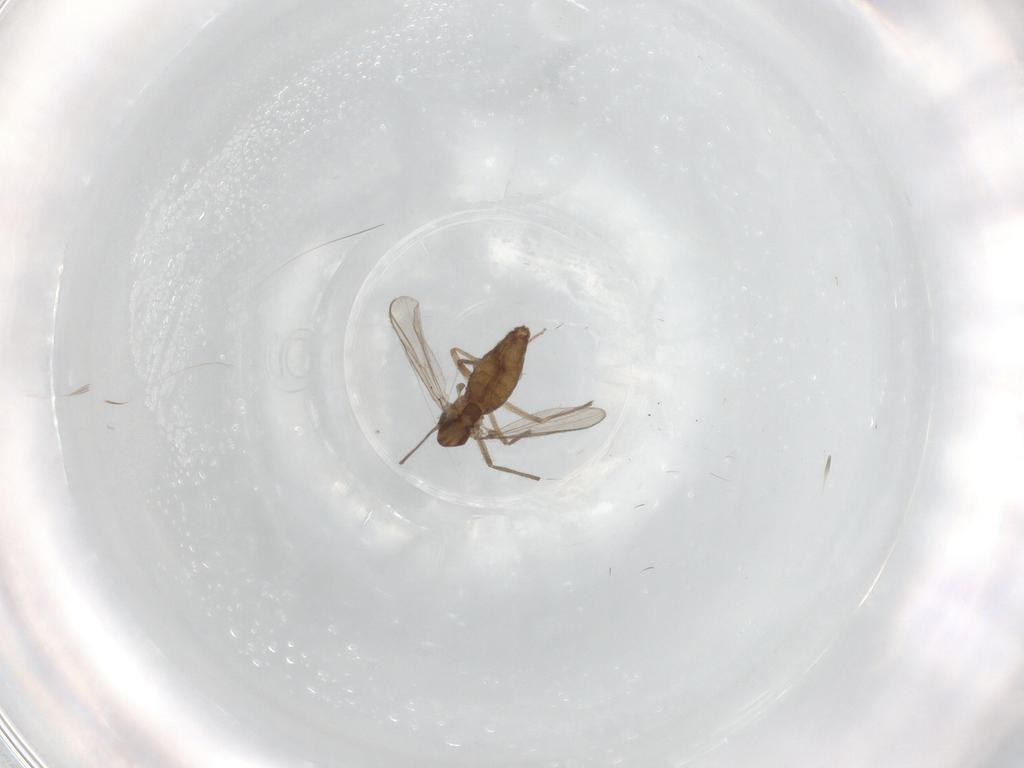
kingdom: Animalia
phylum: Arthropoda
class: Insecta
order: Diptera
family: Chironomidae
